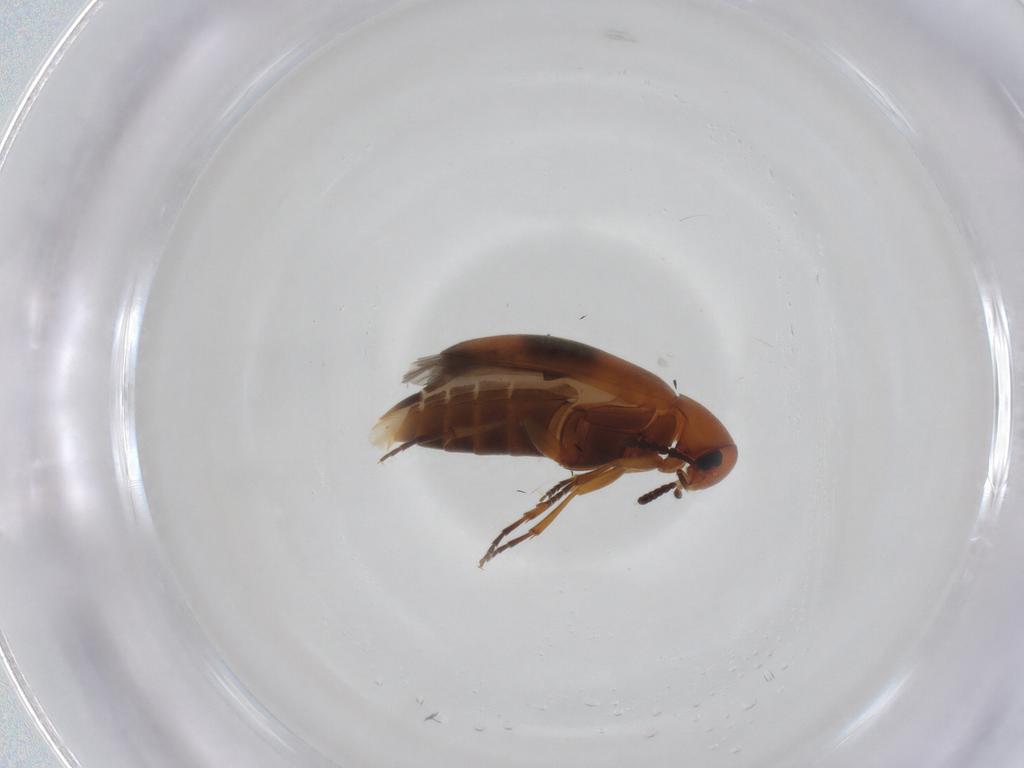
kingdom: Animalia
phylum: Arthropoda
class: Insecta
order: Coleoptera
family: Scraptiidae
